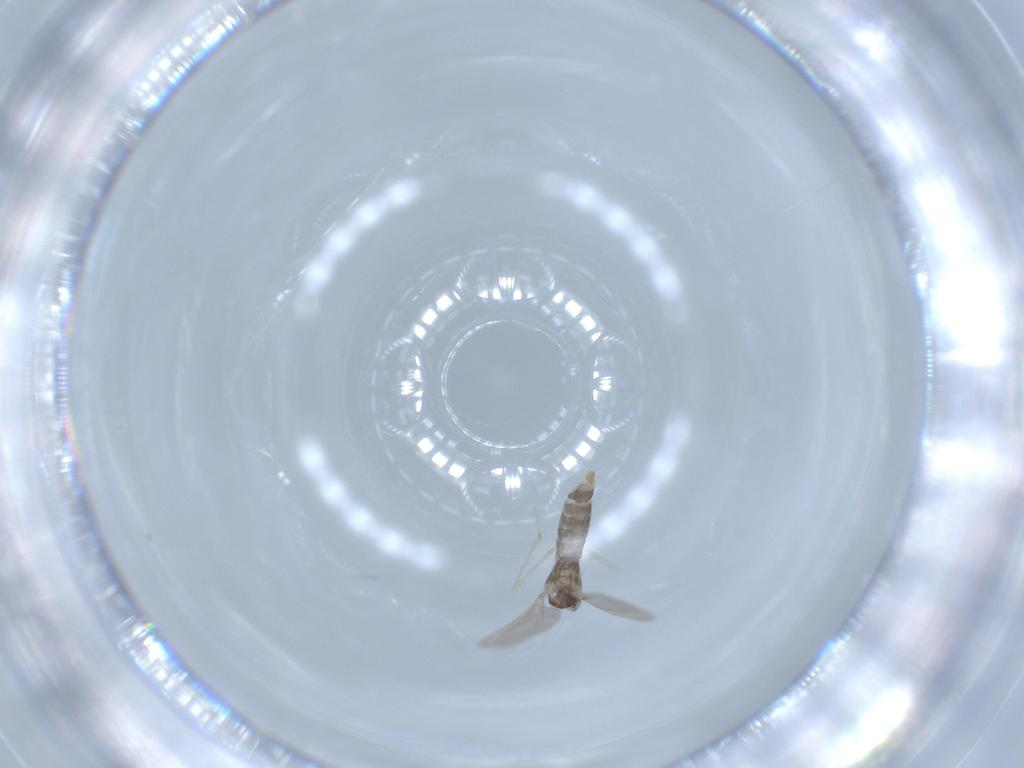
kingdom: Animalia
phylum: Arthropoda
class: Insecta
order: Diptera
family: Cecidomyiidae
